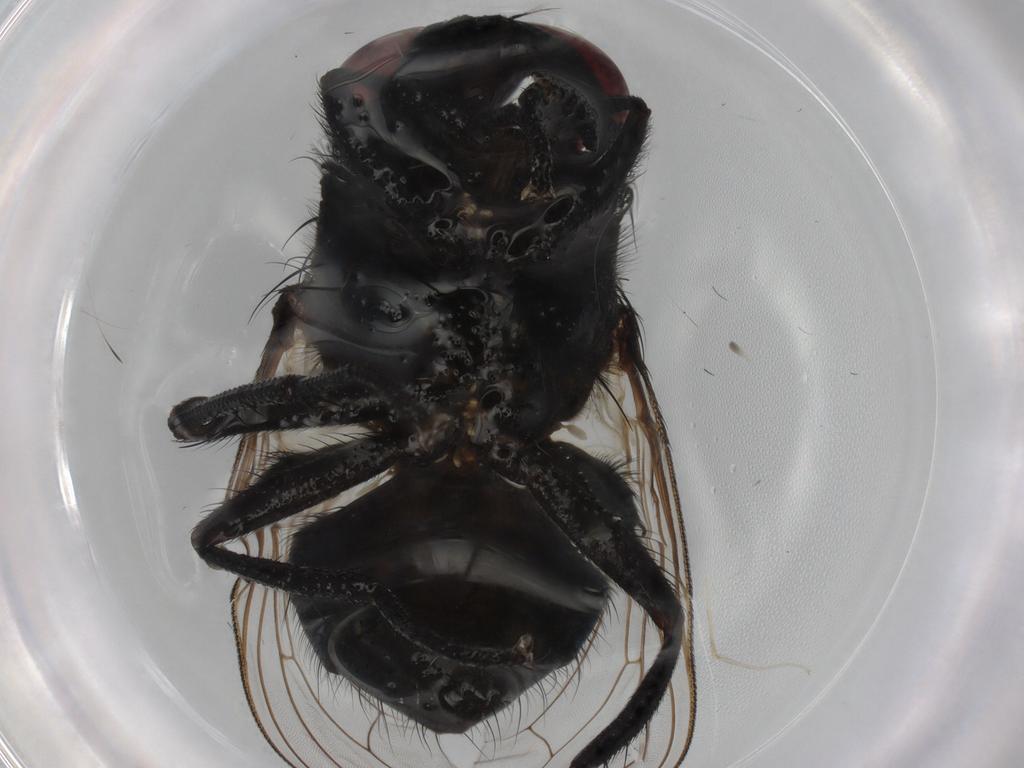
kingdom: Animalia
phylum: Arthropoda
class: Insecta
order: Diptera
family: Muscidae
